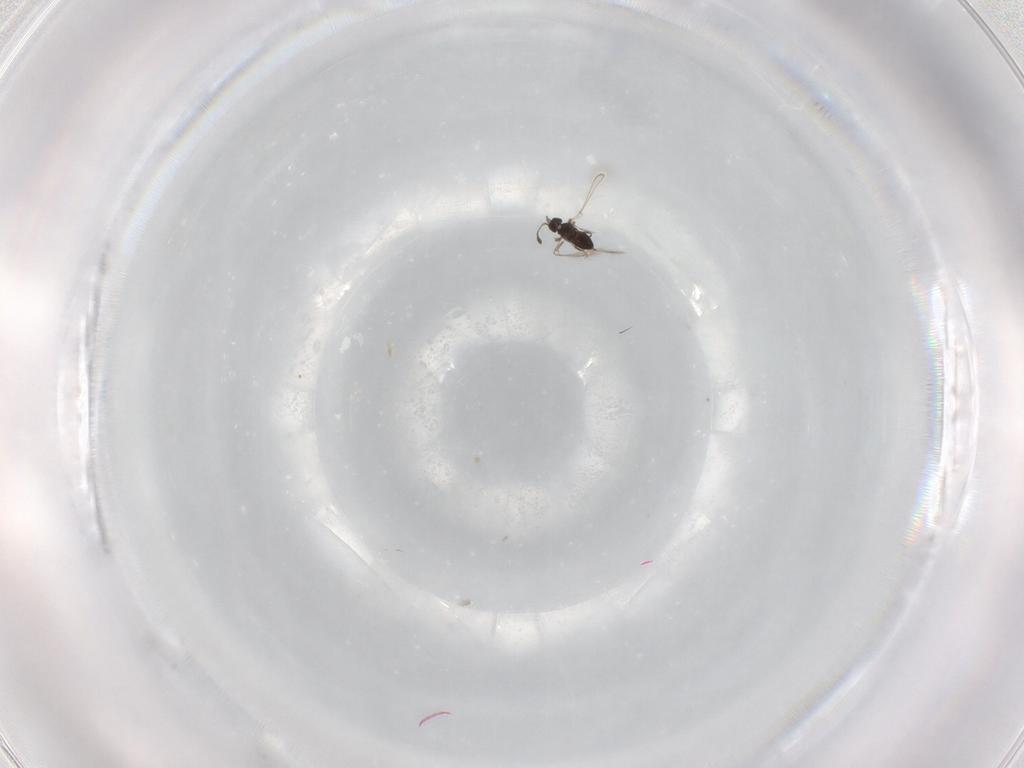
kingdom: Animalia
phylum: Arthropoda
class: Insecta
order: Hymenoptera
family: Mymaridae
